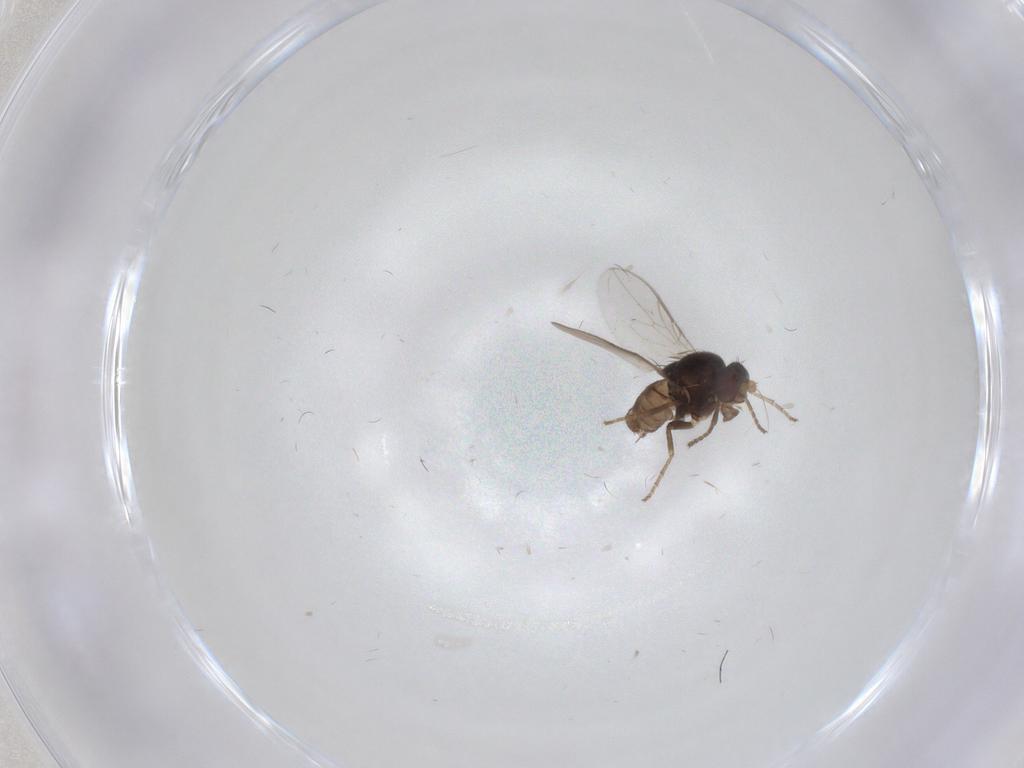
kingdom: Animalia
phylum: Arthropoda
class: Insecta
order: Diptera
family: Sphaeroceridae
